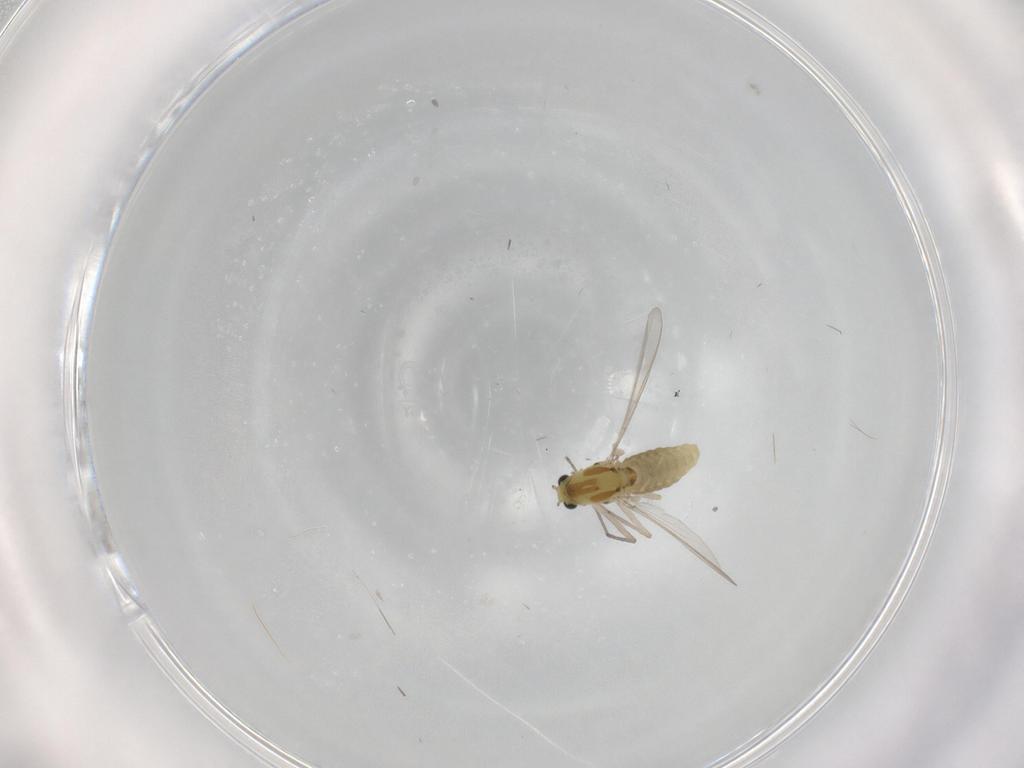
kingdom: Animalia
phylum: Arthropoda
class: Insecta
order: Diptera
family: Chironomidae
